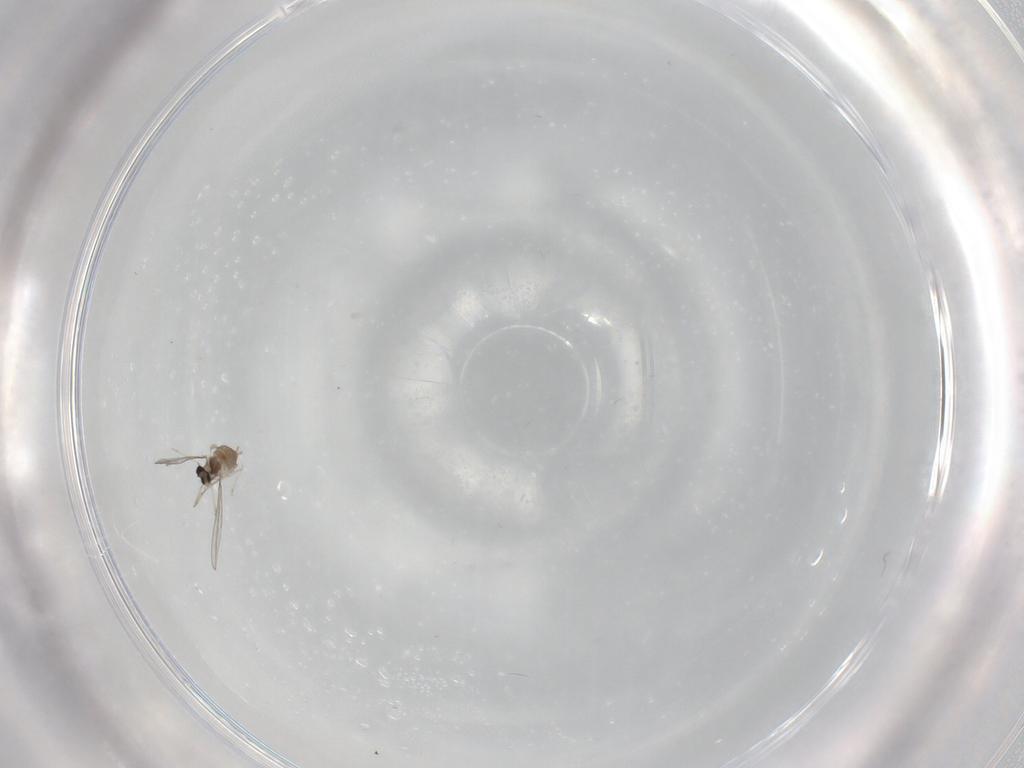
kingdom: Animalia
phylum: Arthropoda
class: Insecta
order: Diptera
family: Cecidomyiidae
